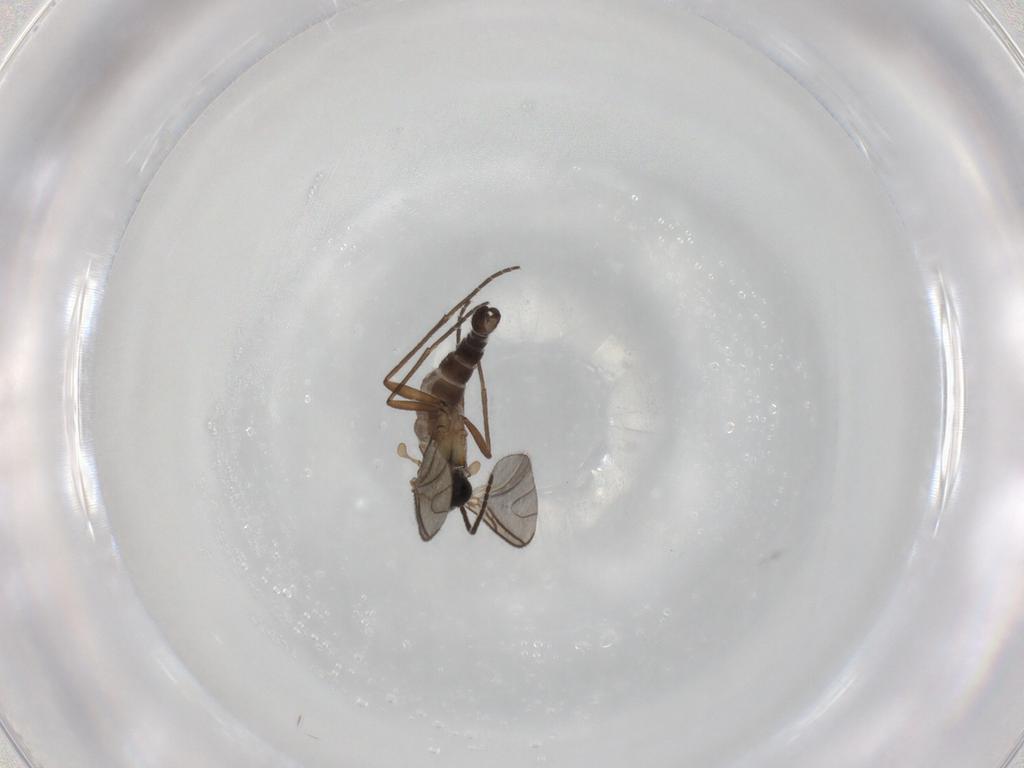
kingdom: Animalia
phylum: Arthropoda
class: Insecta
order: Diptera
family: Sciaridae
